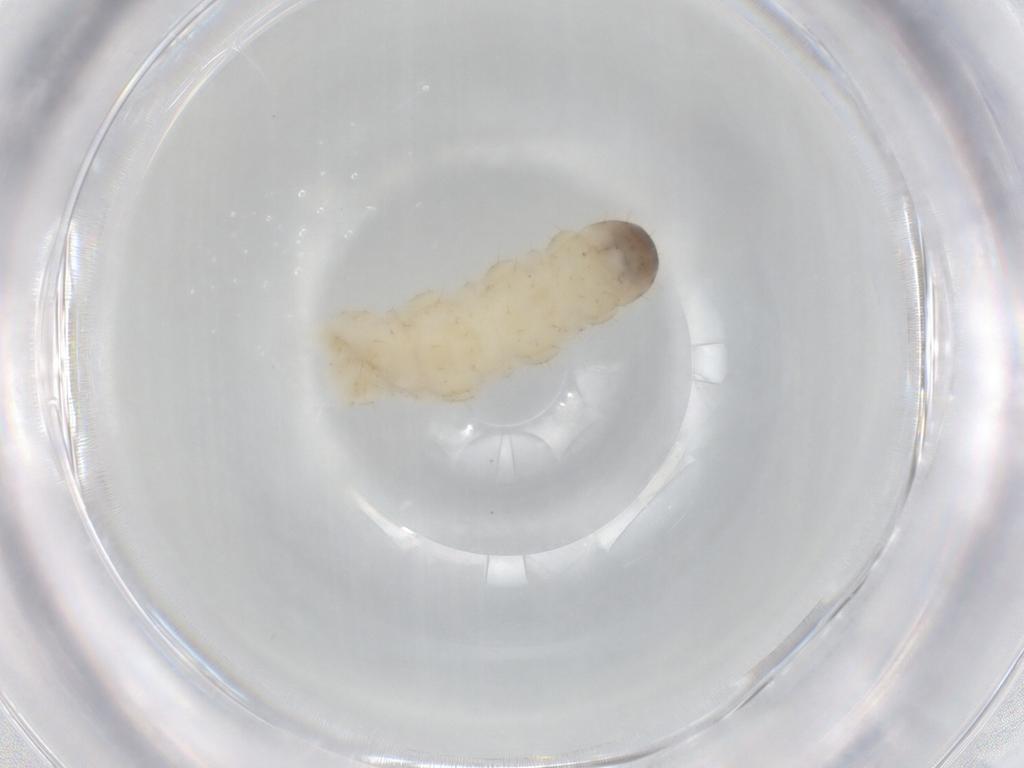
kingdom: Animalia
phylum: Arthropoda
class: Insecta
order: Coleoptera
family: Chrysomelidae
